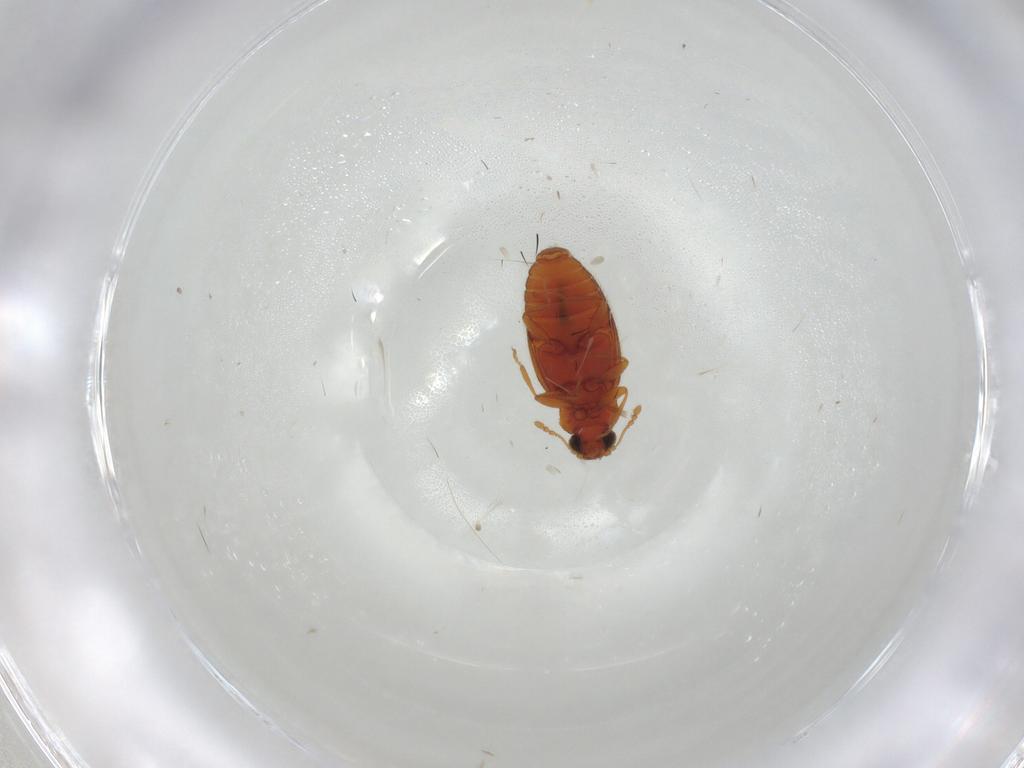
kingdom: Animalia
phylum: Arthropoda
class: Insecta
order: Coleoptera
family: Latridiidae
